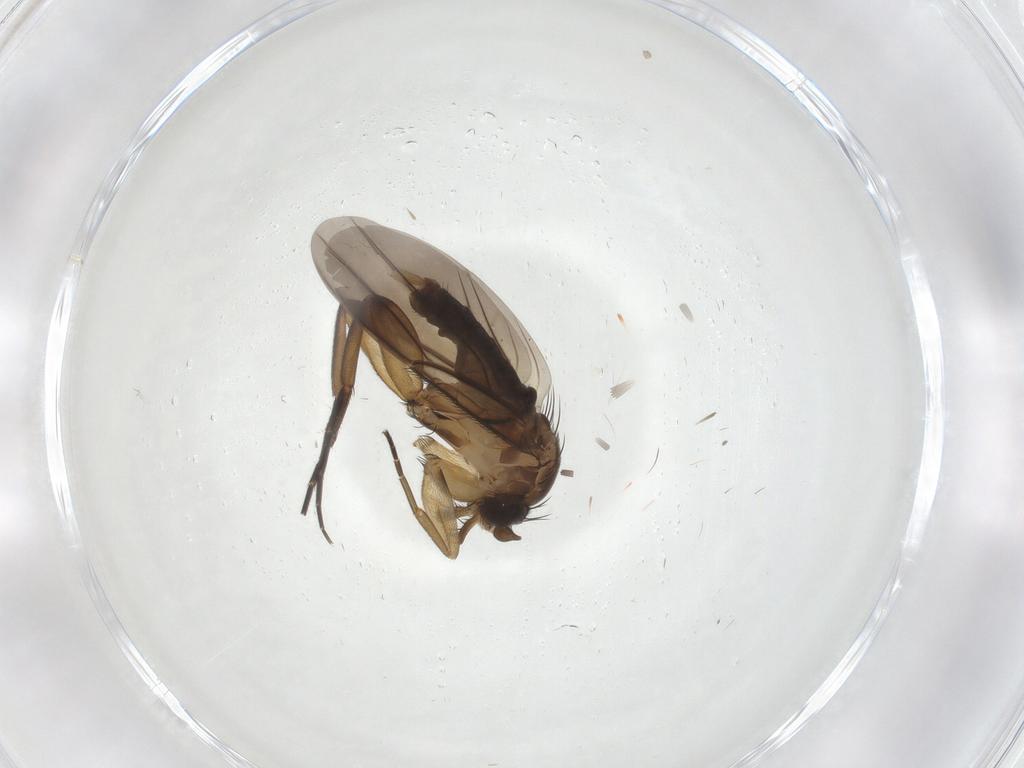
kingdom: Animalia
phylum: Arthropoda
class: Insecta
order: Diptera
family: Phoridae
